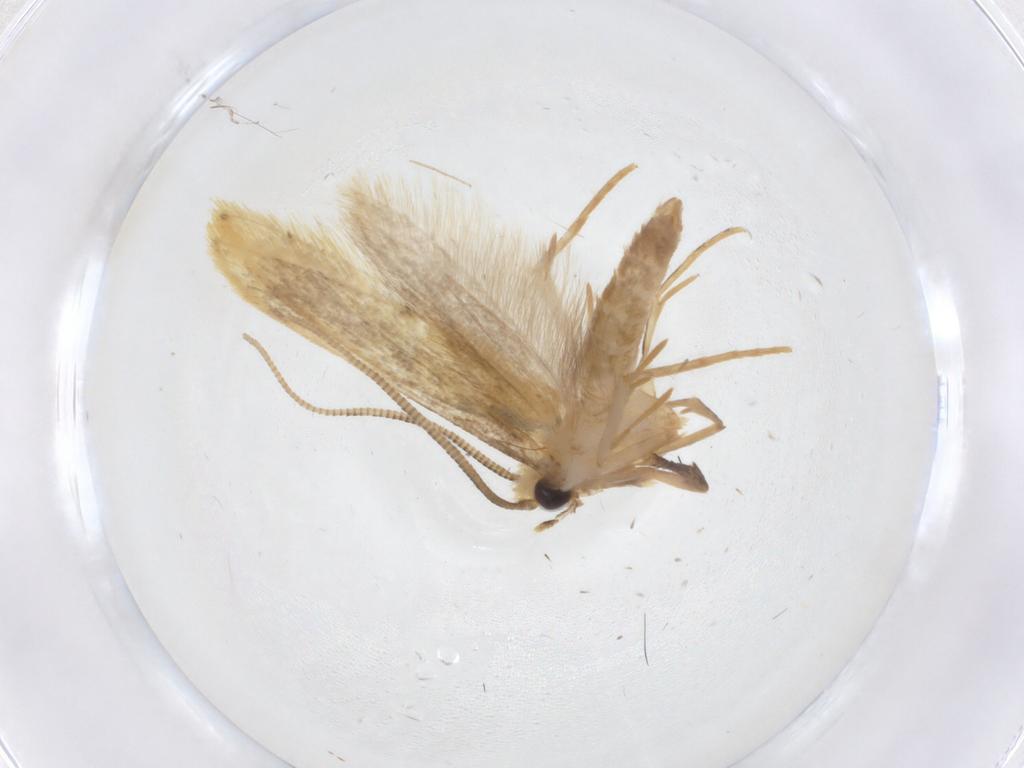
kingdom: Animalia
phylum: Arthropoda
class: Insecta
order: Lepidoptera
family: Tineidae
